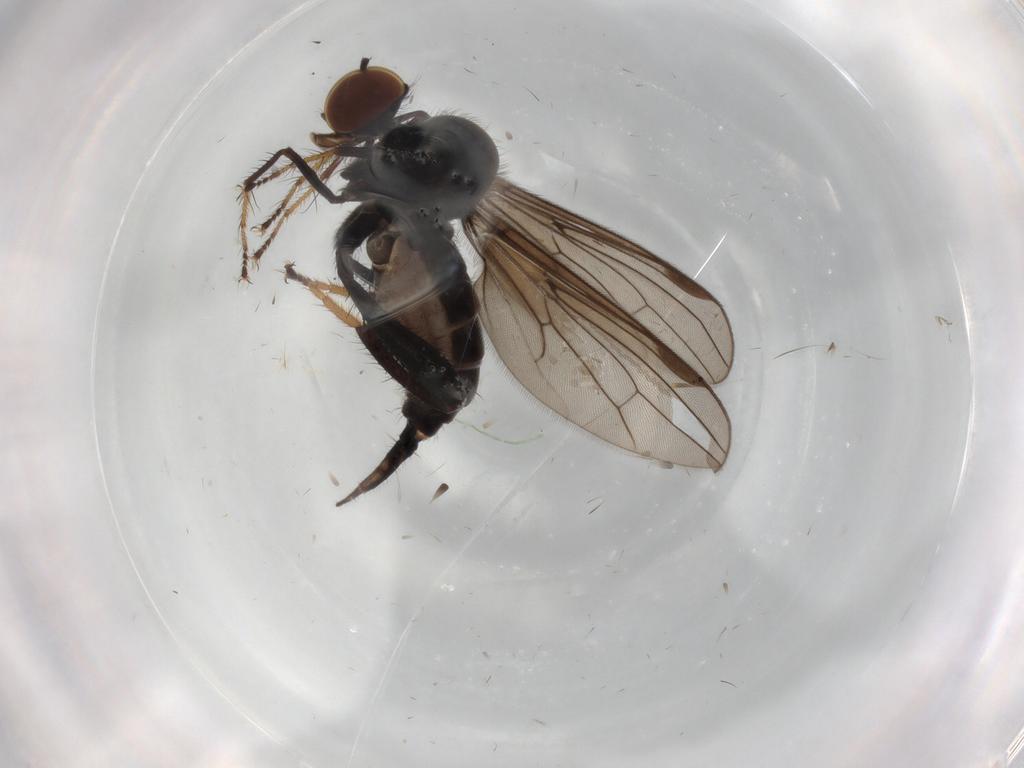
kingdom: Animalia
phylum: Arthropoda
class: Insecta
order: Diptera
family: Hybotidae
